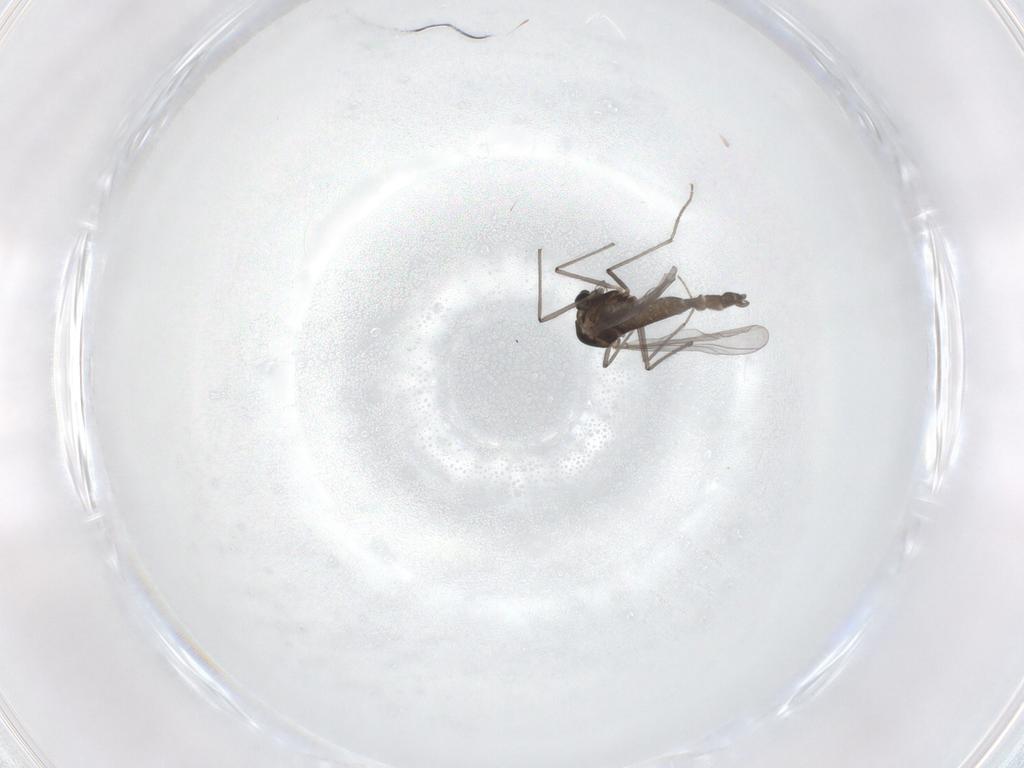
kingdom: Animalia
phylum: Arthropoda
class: Insecta
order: Diptera
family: Chironomidae
